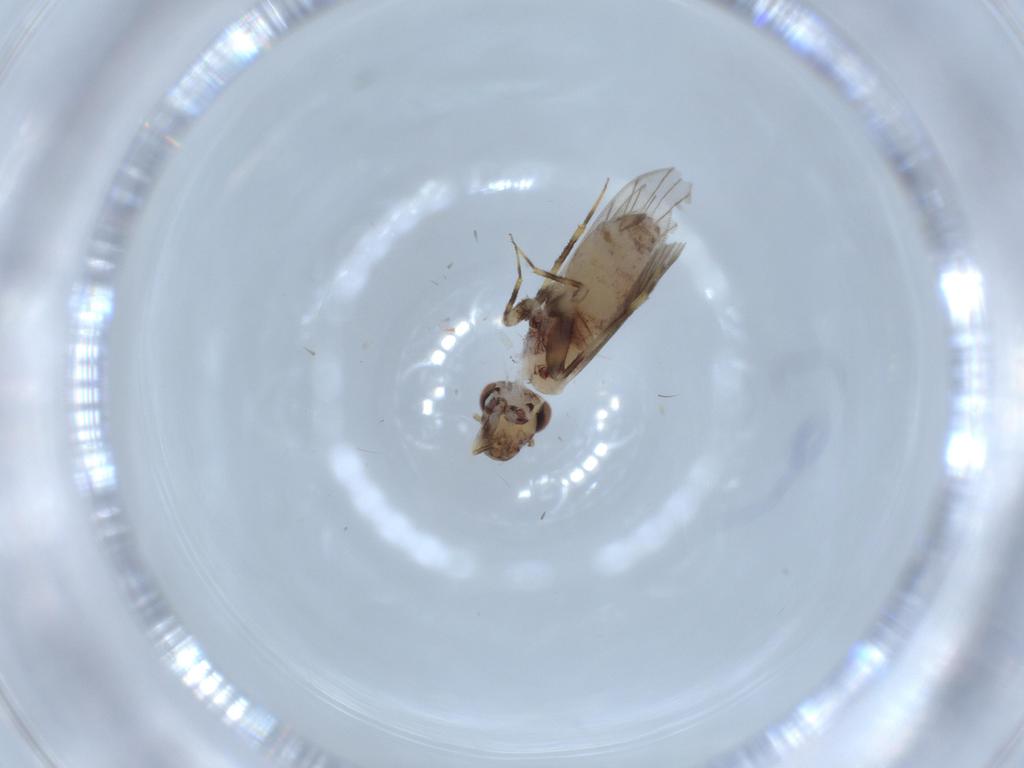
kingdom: Animalia
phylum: Arthropoda
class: Insecta
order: Psocodea
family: Lepidopsocidae
